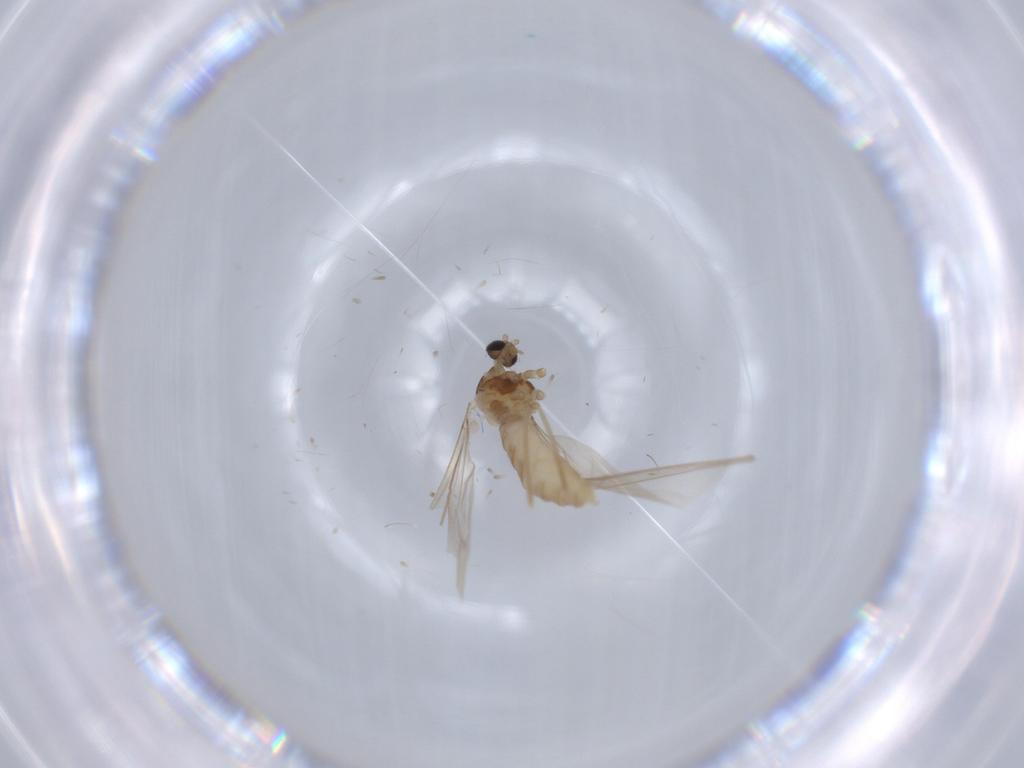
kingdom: Animalia
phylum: Arthropoda
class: Insecta
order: Diptera
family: Cecidomyiidae
